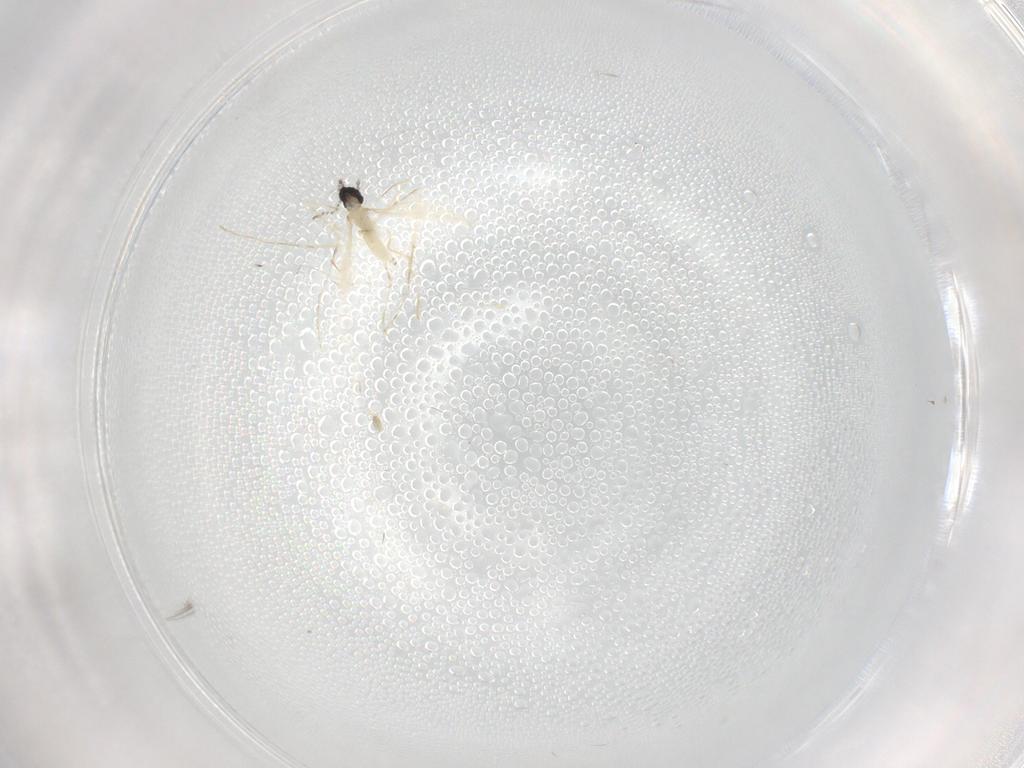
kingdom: Animalia
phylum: Arthropoda
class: Insecta
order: Diptera
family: Cecidomyiidae
